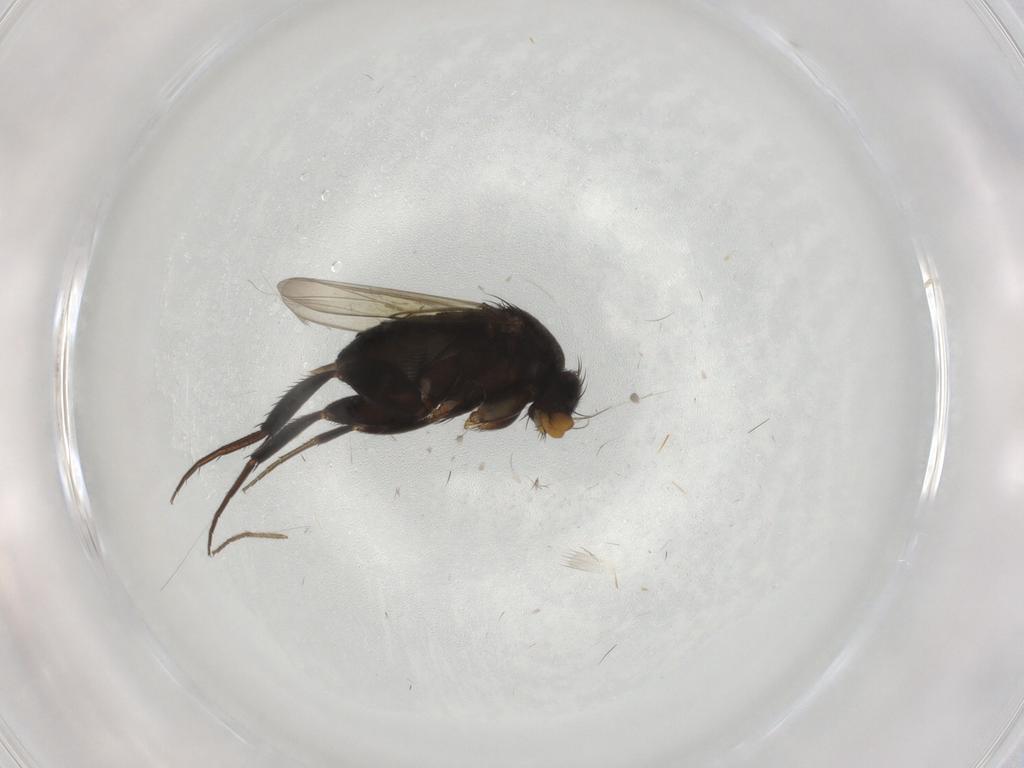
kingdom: Animalia
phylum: Arthropoda
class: Insecta
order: Diptera
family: Phoridae
